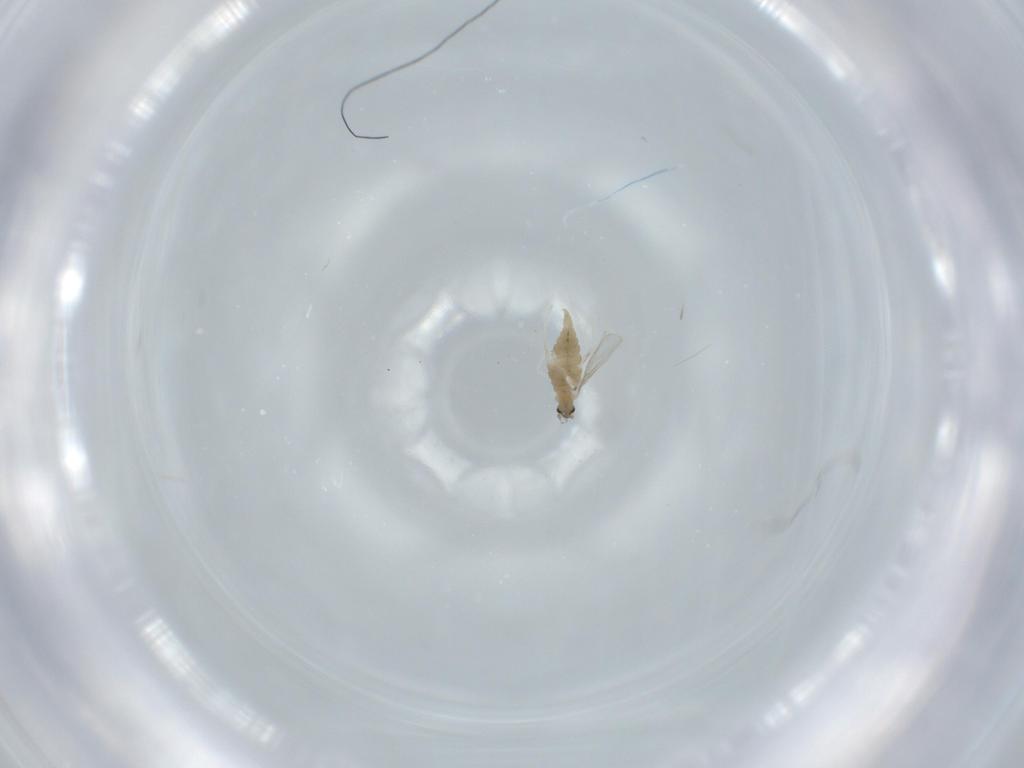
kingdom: Animalia
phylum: Arthropoda
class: Insecta
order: Diptera
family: Cecidomyiidae
